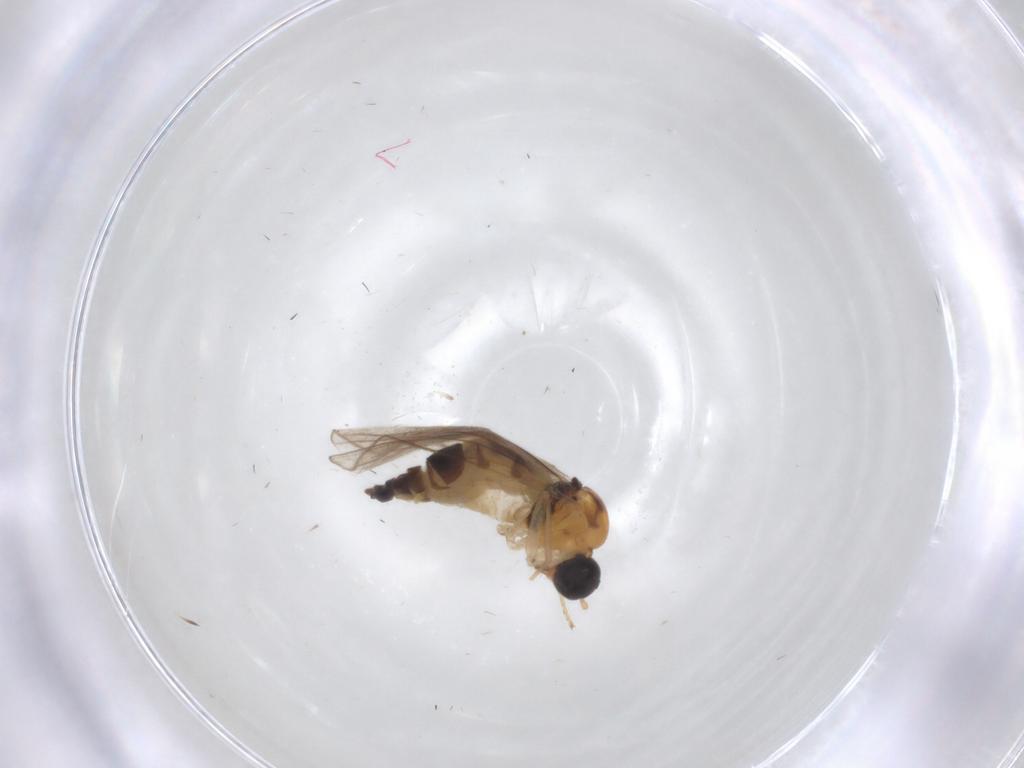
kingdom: Animalia
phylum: Arthropoda
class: Insecta
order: Diptera
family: Hybotidae
